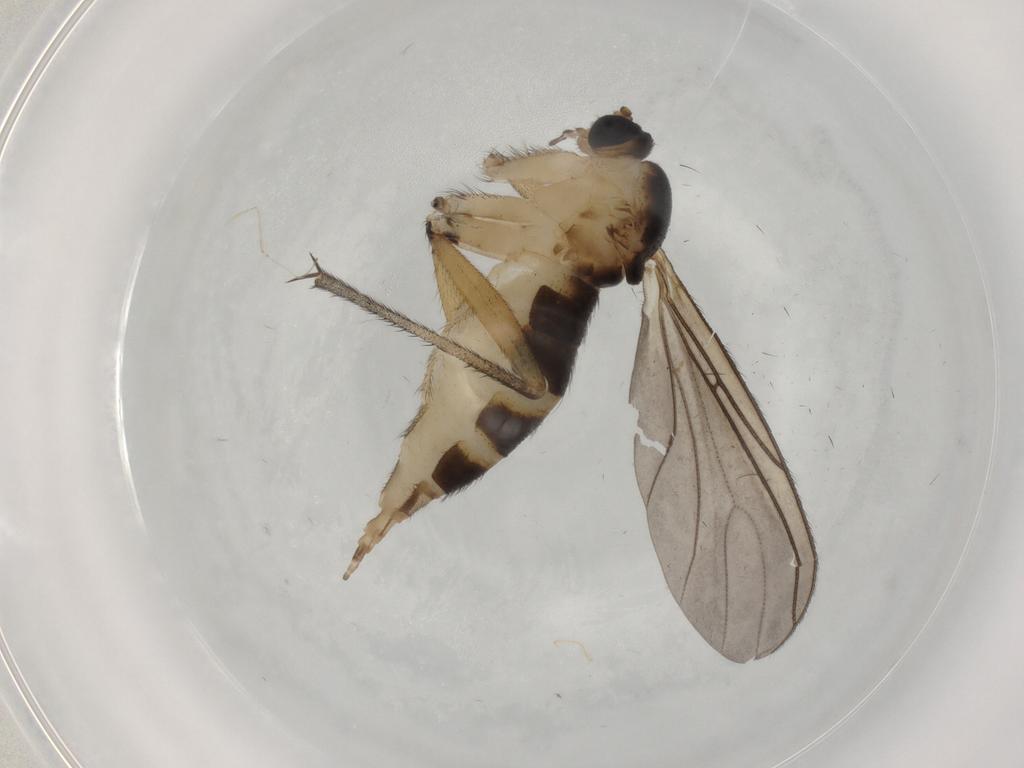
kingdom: Animalia
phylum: Arthropoda
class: Insecta
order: Diptera
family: Sciaridae
